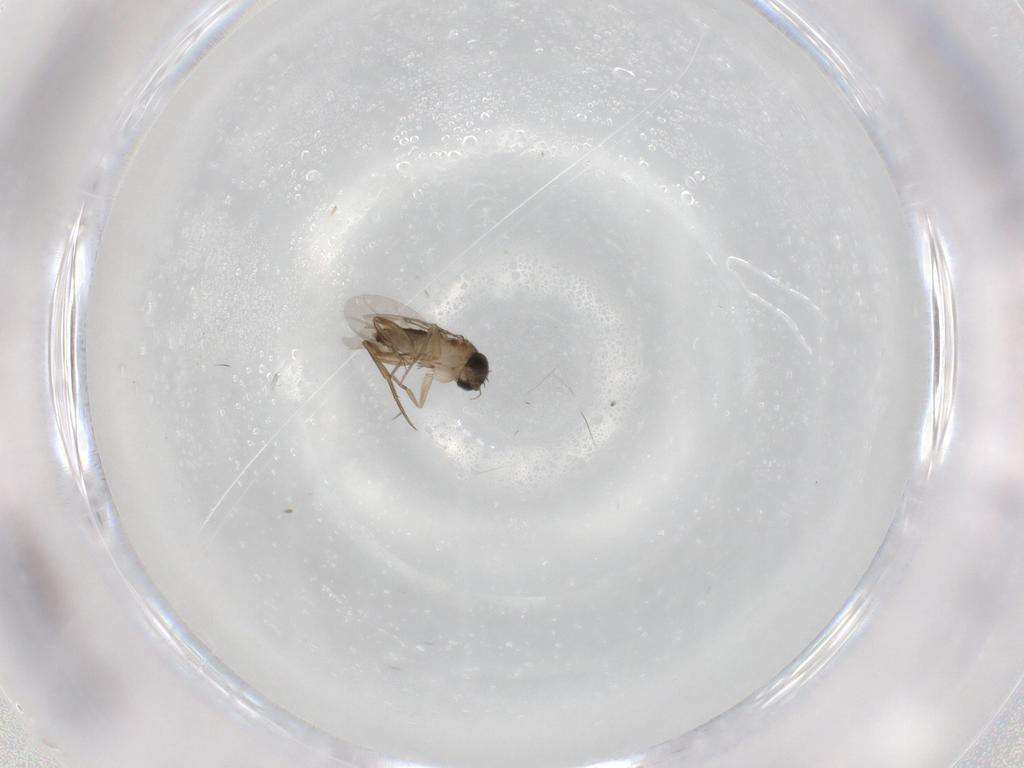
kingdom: Animalia
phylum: Arthropoda
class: Insecta
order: Diptera
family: Phoridae
